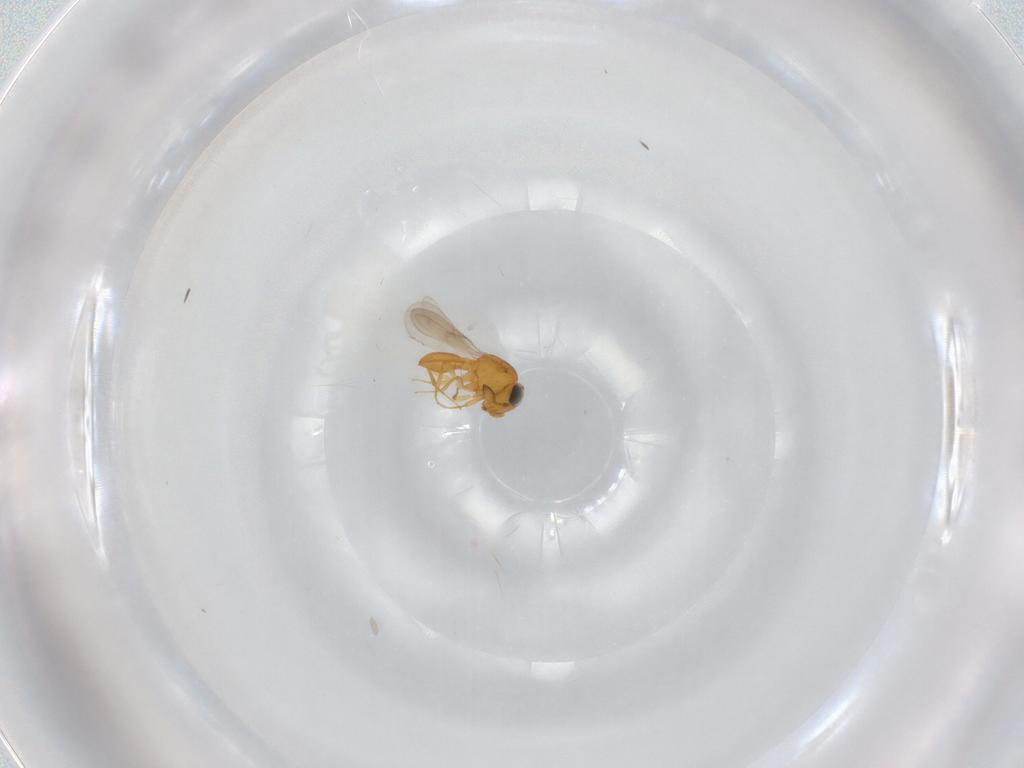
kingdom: Animalia
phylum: Arthropoda
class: Insecta
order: Hymenoptera
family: Scelionidae
